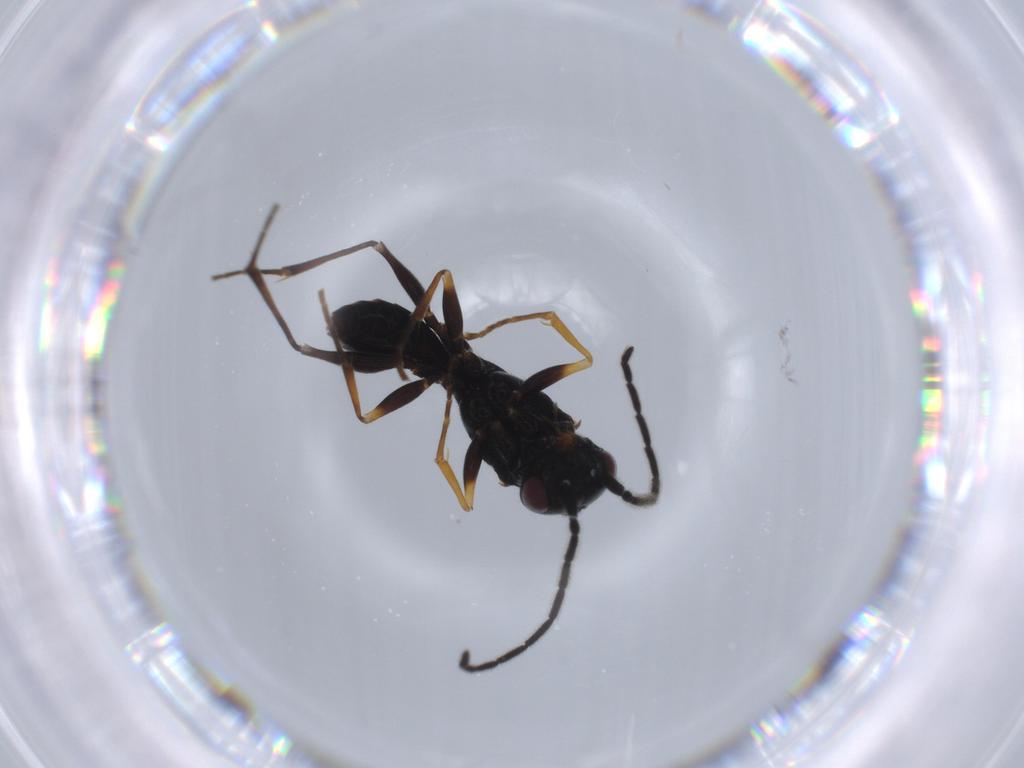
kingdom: Animalia
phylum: Arthropoda
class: Insecta
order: Hymenoptera
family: Dryinidae
